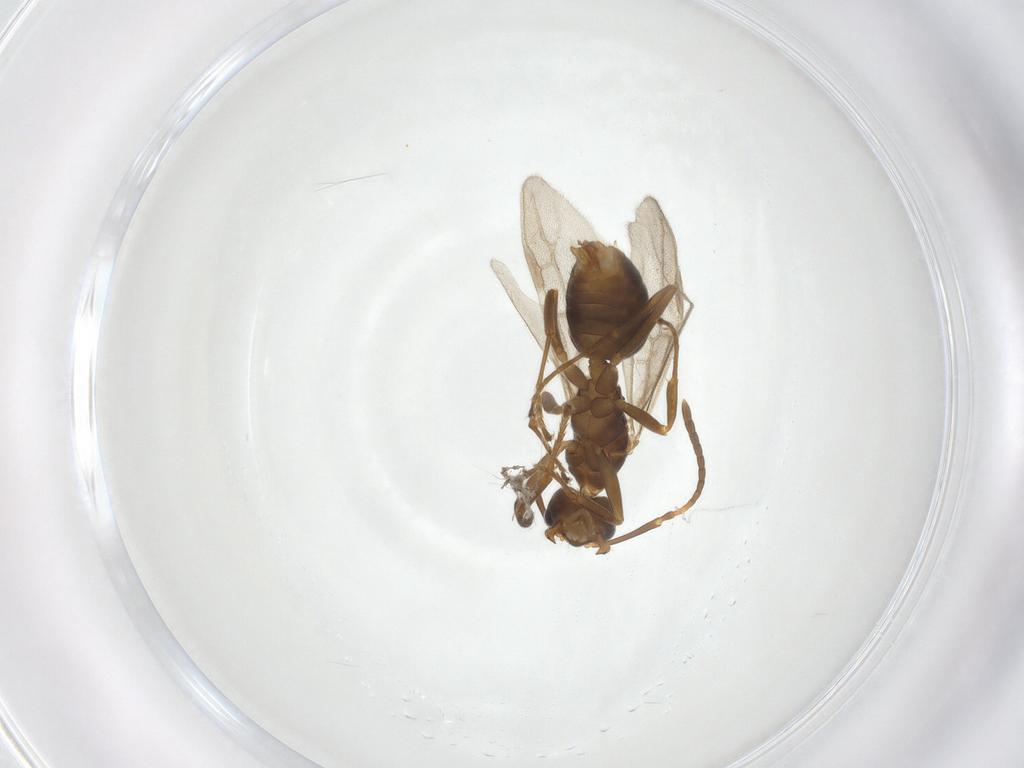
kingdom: Animalia
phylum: Arthropoda
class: Insecta
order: Hymenoptera
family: Formicidae
